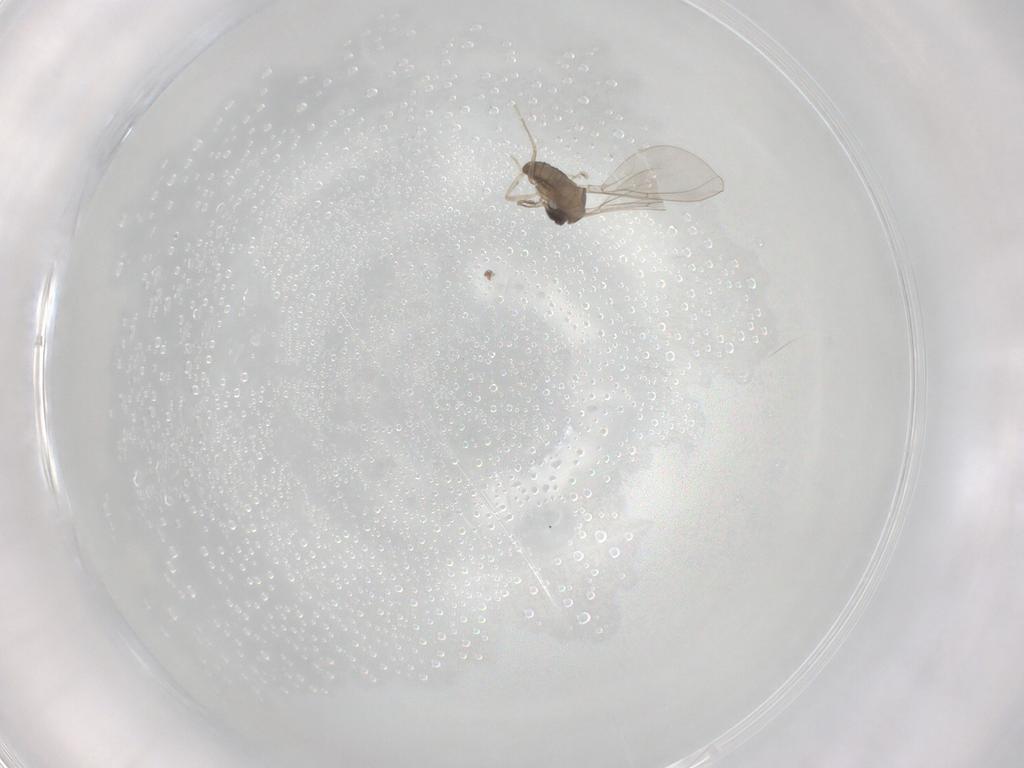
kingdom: Animalia
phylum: Arthropoda
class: Insecta
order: Diptera
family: Cecidomyiidae
